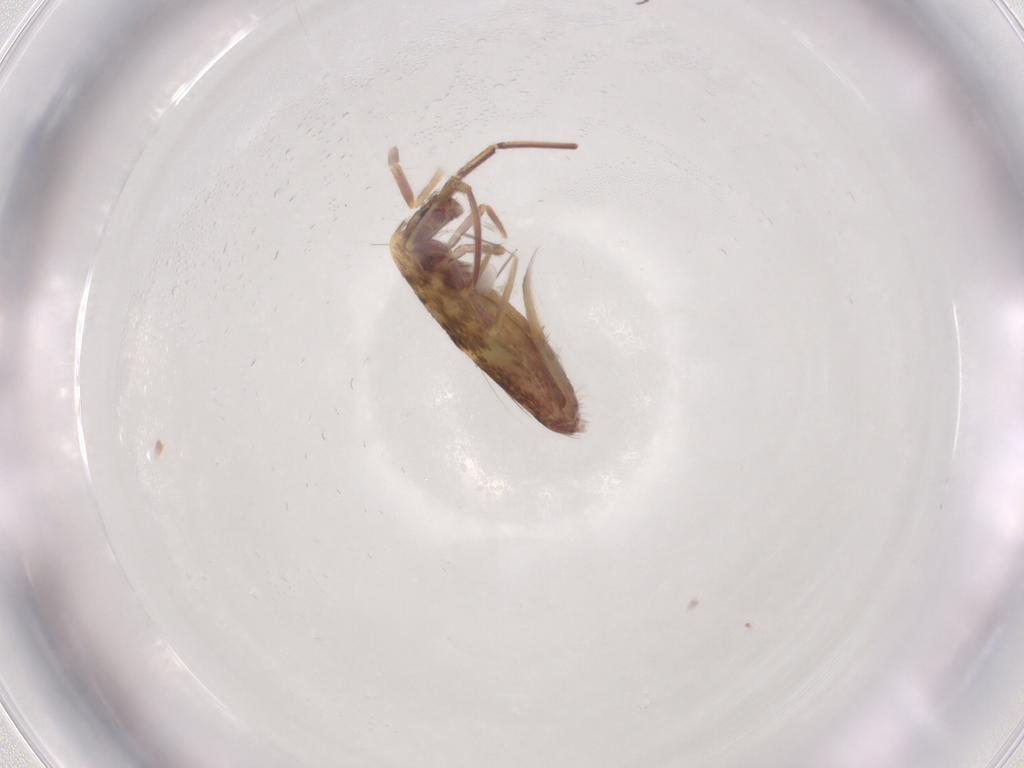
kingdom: Animalia
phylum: Arthropoda
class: Collembola
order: Entomobryomorpha
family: Entomobryidae
